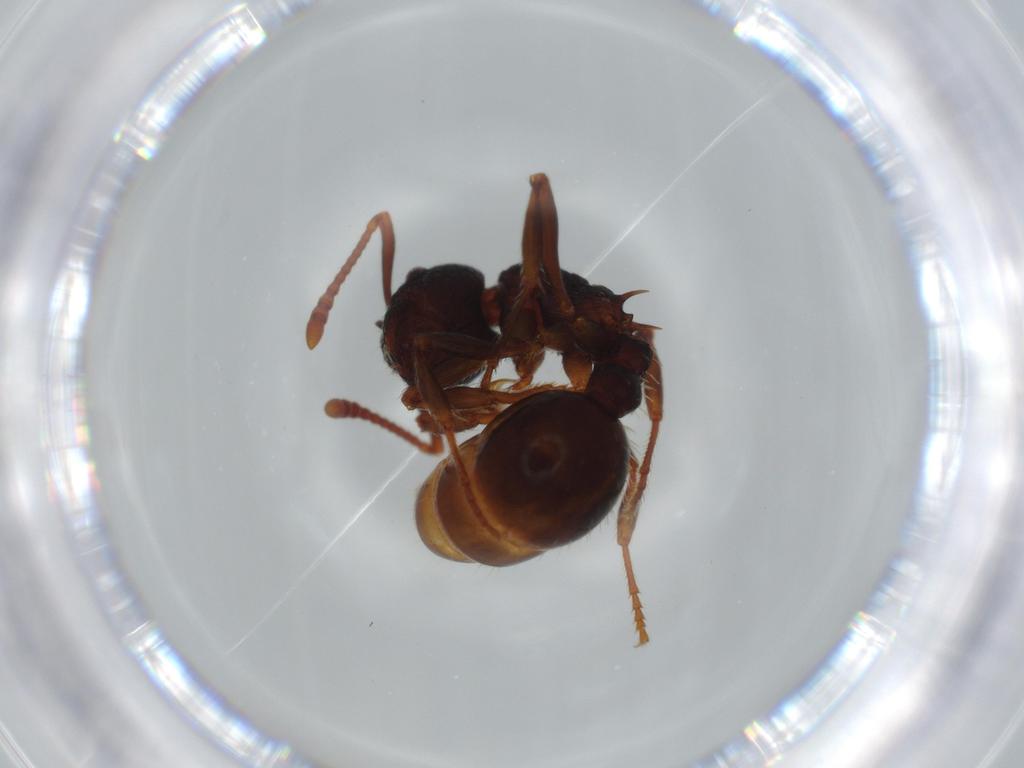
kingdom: Animalia
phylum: Arthropoda
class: Insecta
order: Hymenoptera
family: Formicidae
